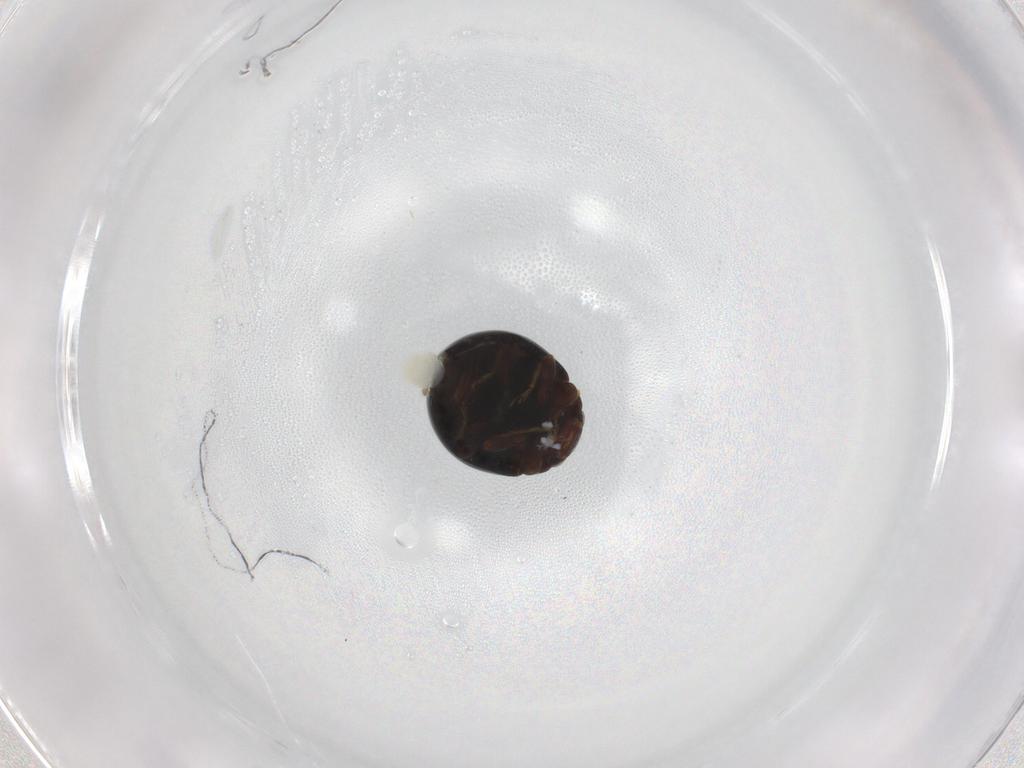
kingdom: Animalia
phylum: Arthropoda
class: Insecta
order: Coleoptera
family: Coccinellidae
